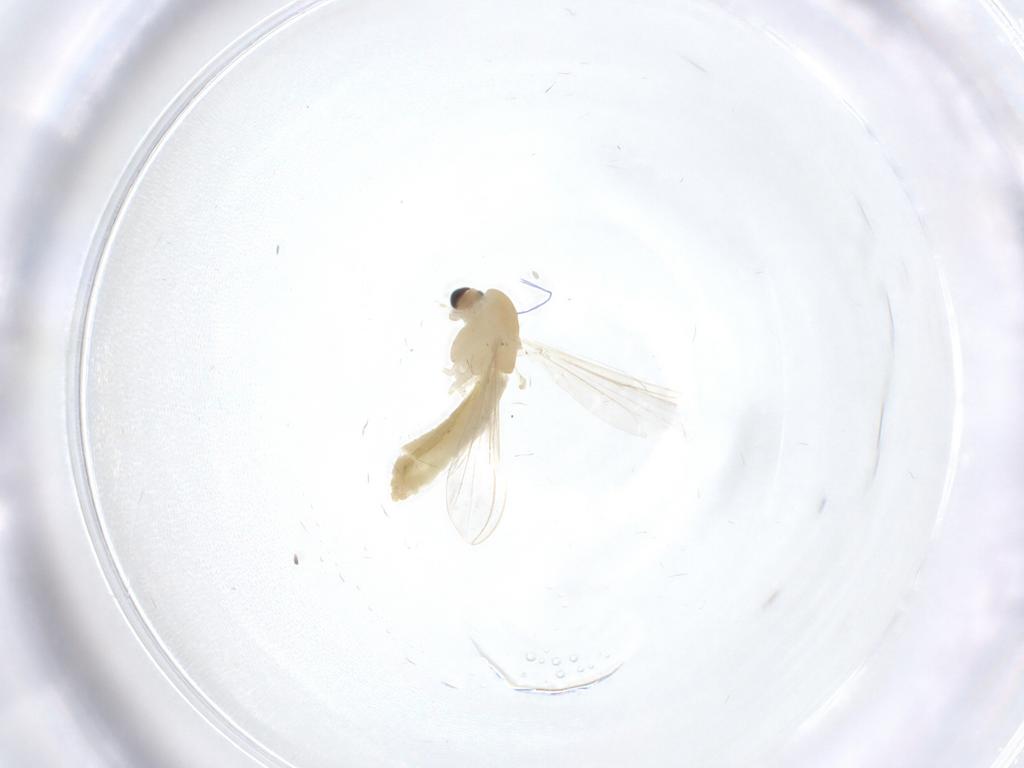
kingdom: Animalia
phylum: Arthropoda
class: Insecta
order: Diptera
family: Chironomidae
